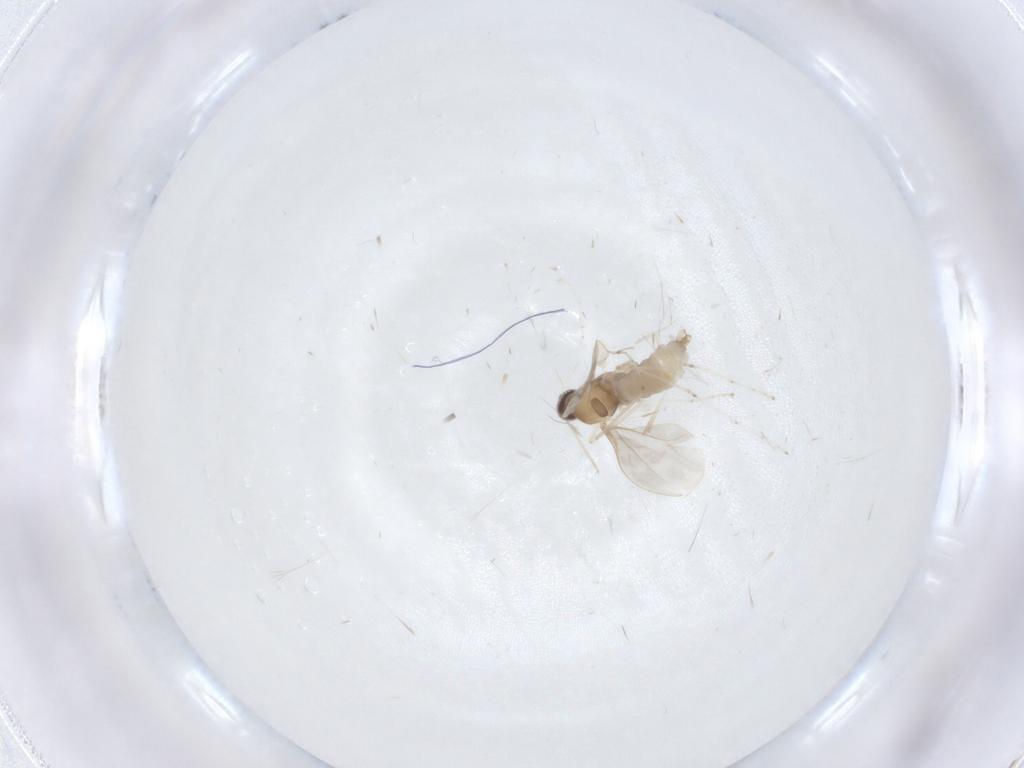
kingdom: Animalia
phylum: Arthropoda
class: Insecta
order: Diptera
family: Cecidomyiidae
